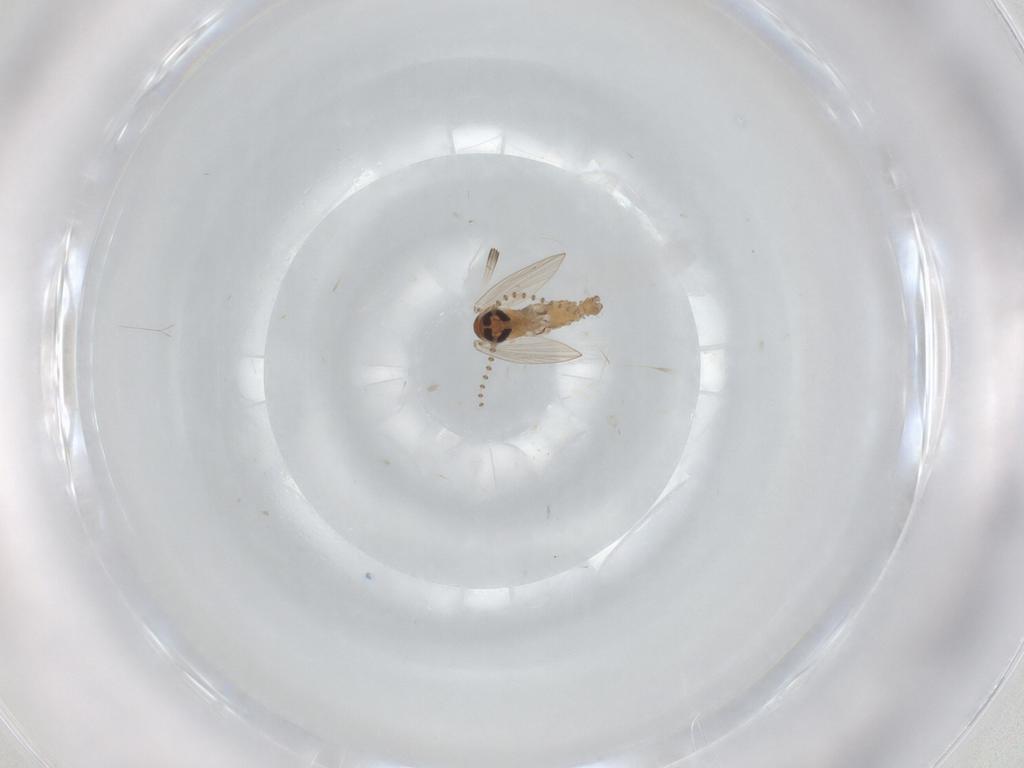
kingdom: Animalia
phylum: Arthropoda
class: Insecta
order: Diptera
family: Psychodidae
